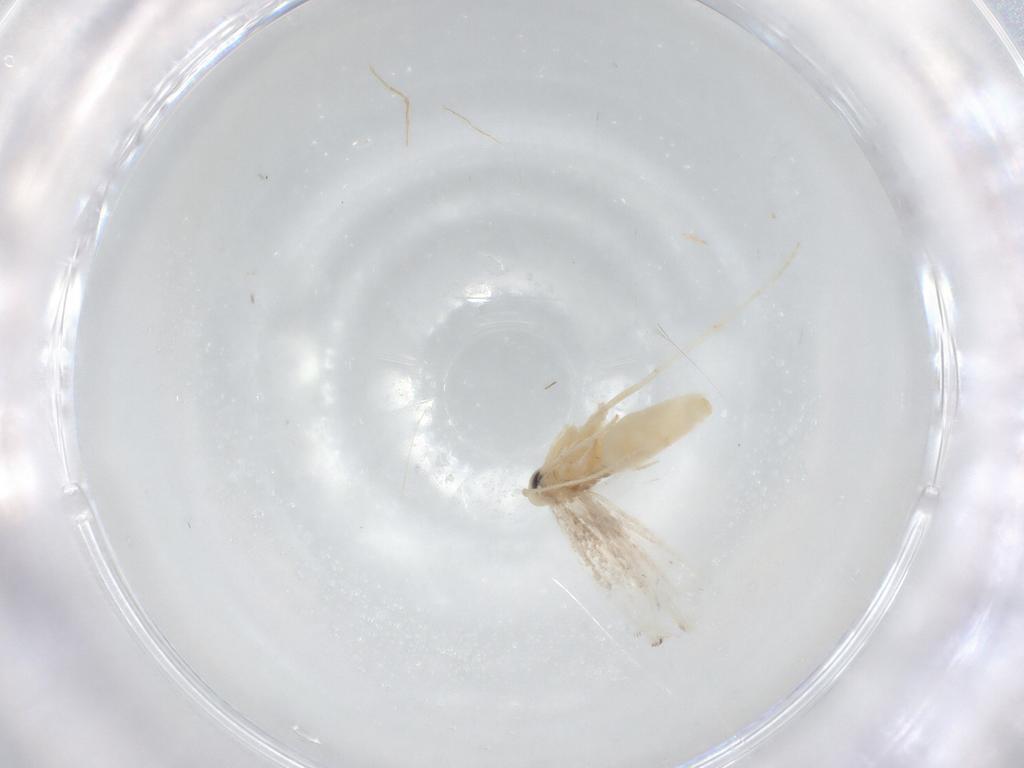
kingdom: Animalia
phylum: Arthropoda
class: Insecta
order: Lepidoptera
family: Gracillariidae
